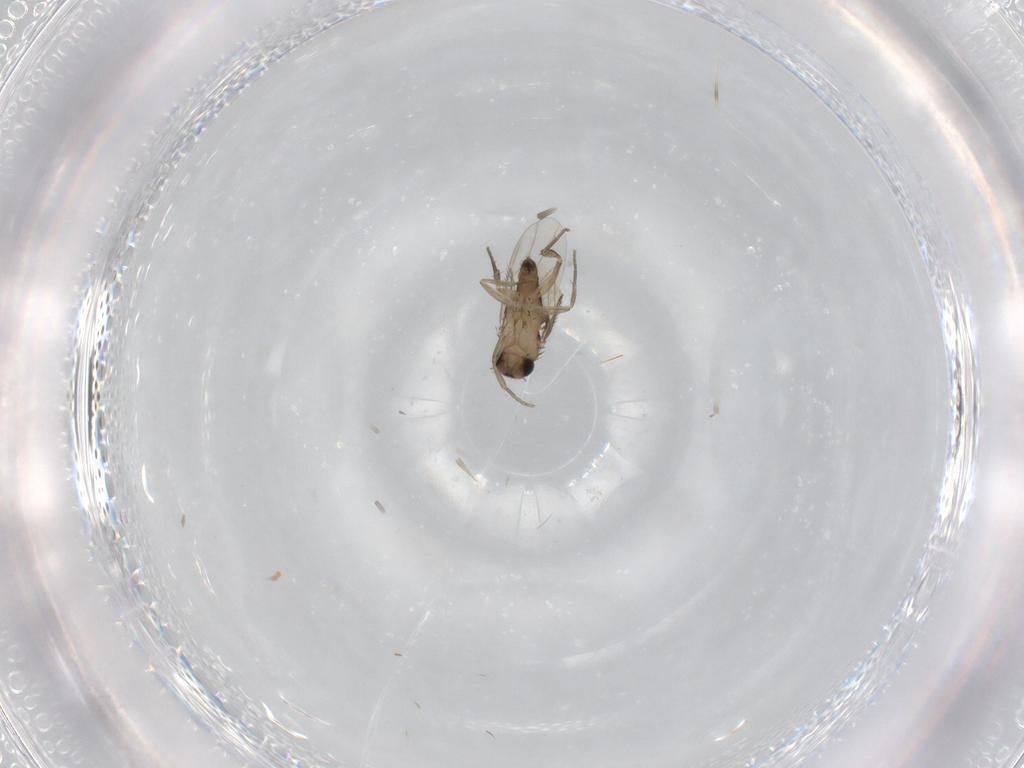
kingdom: Animalia
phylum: Arthropoda
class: Insecta
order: Diptera
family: Phoridae
